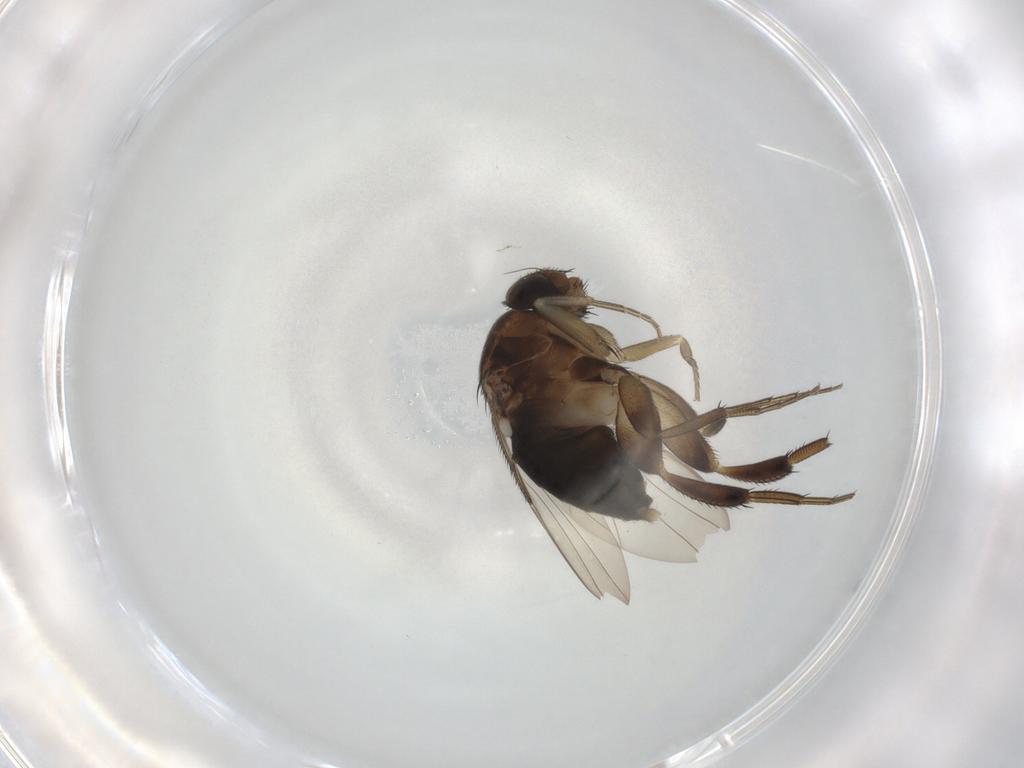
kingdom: Animalia
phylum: Arthropoda
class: Insecta
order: Diptera
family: Phoridae
